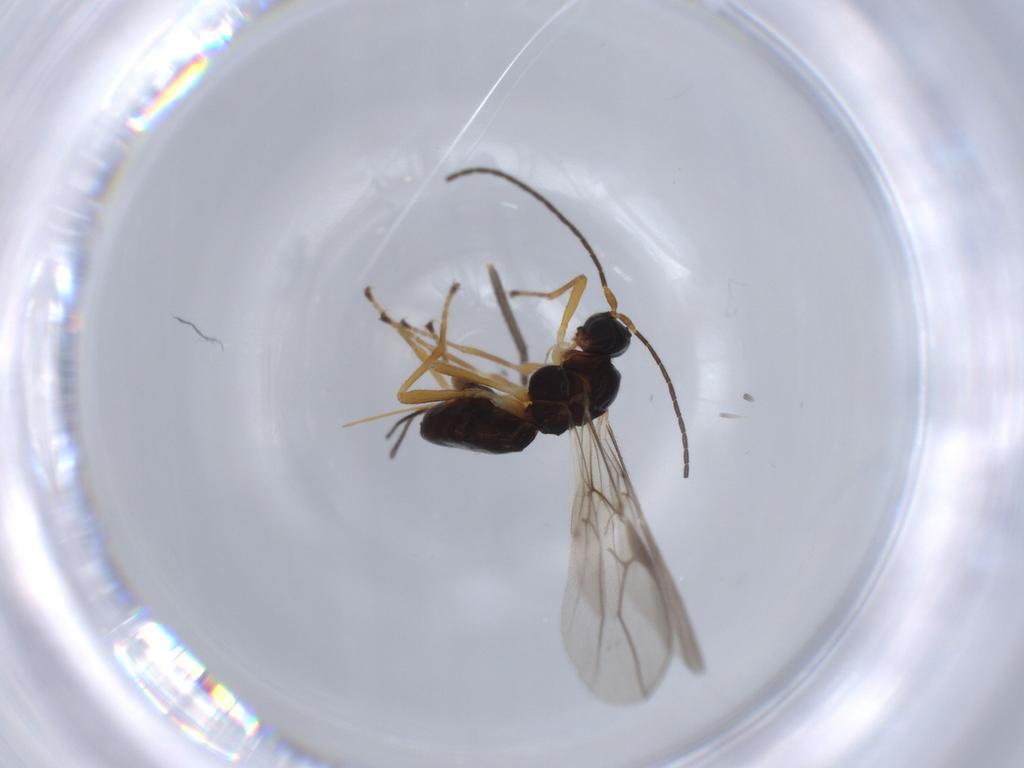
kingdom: Animalia
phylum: Arthropoda
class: Insecta
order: Hymenoptera
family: Braconidae
